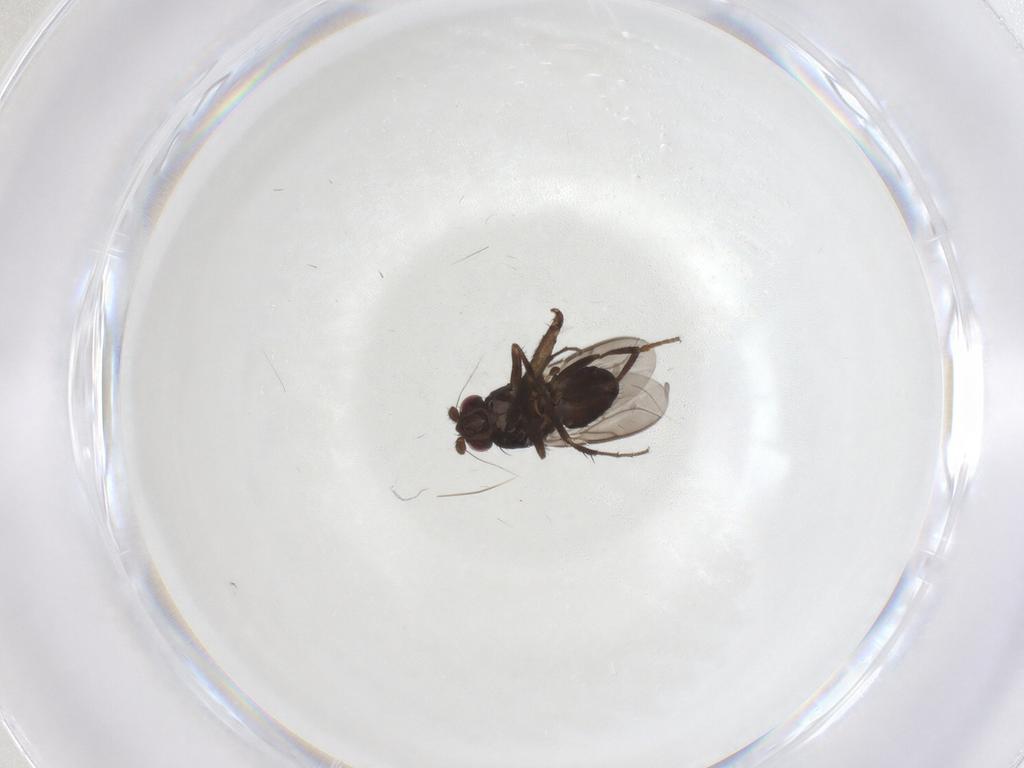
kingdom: Animalia
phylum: Arthropoda
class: Insecta
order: Diptera
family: Sphaeroceridae
